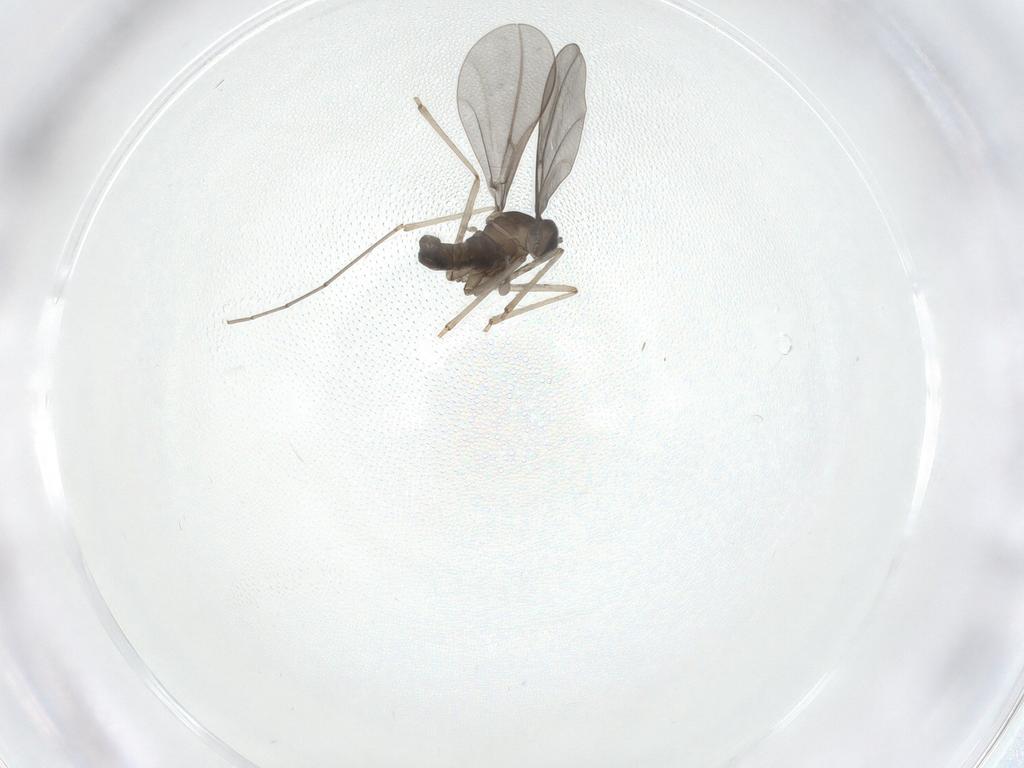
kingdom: Animalia
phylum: Arthropoda
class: Insecta
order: Diptera
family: Cecidomyiidae
